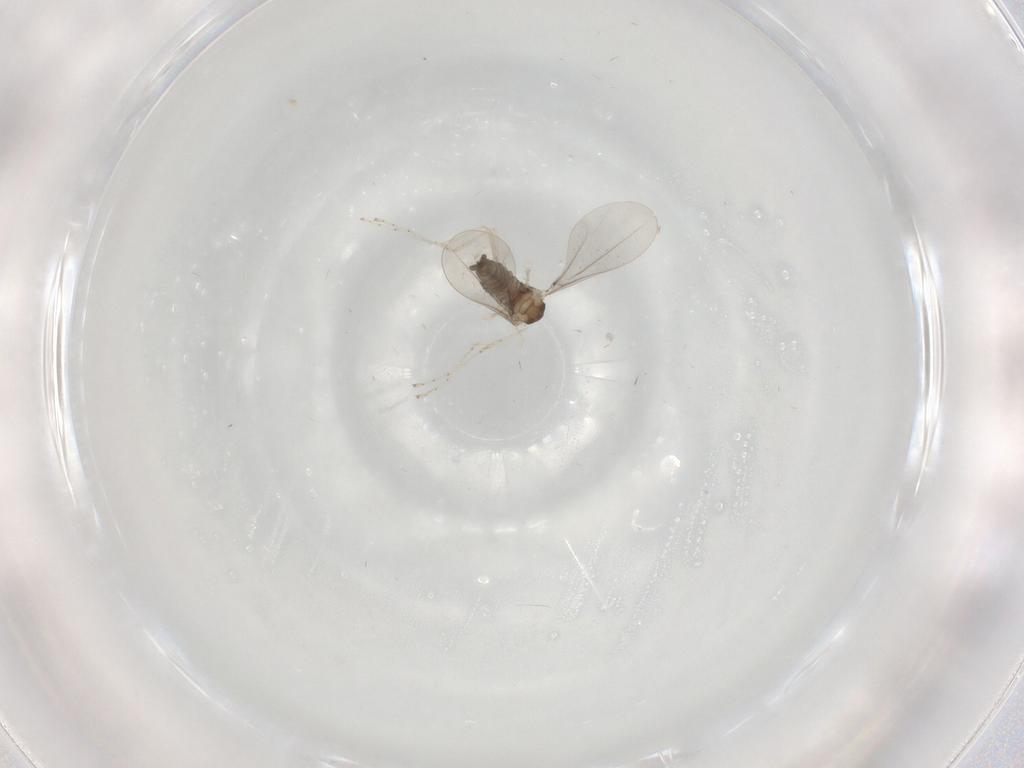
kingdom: Animalia
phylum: Arthropoda
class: Insecta
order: Diptera
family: Cecidomyiidae
